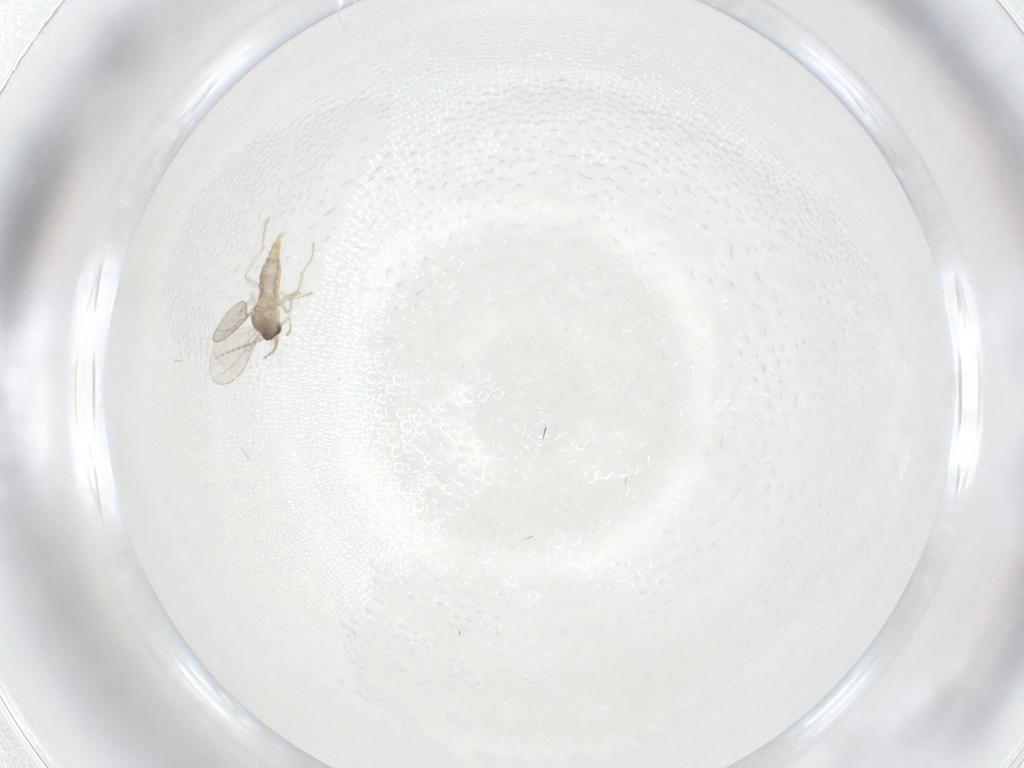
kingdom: Animalia
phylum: Arthropoda
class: Insecta
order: Diptera
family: Cecidomyiidae
